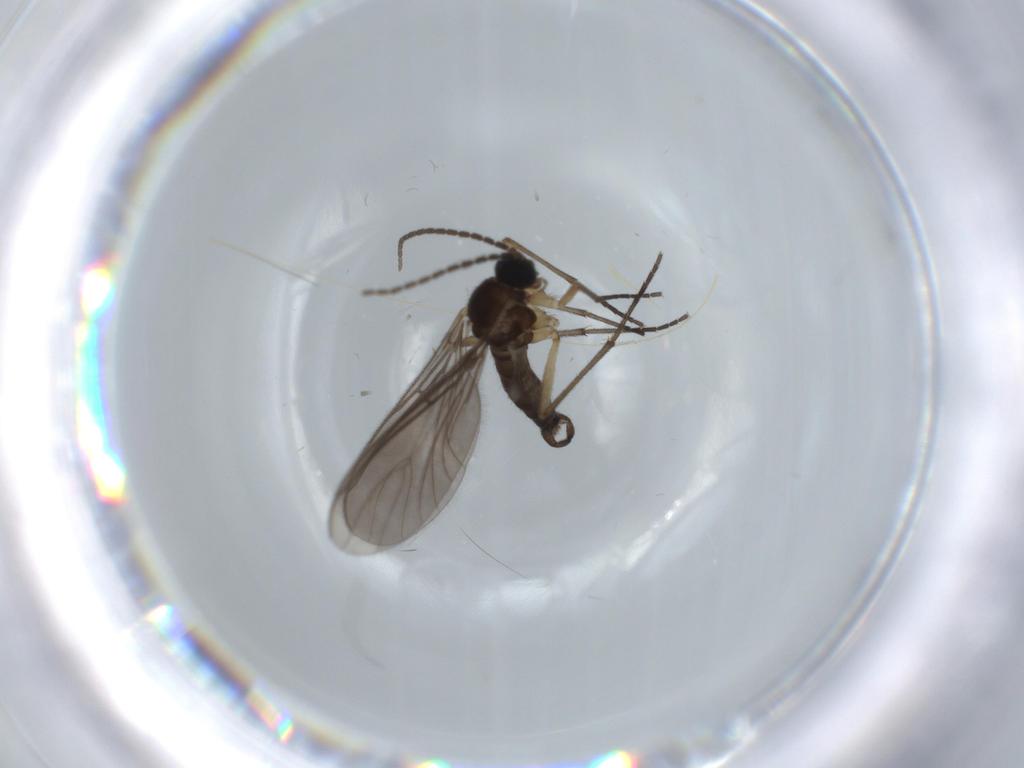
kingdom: Animalia
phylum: Arthropoda
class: Insecta
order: Diptera
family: Sciaridae
